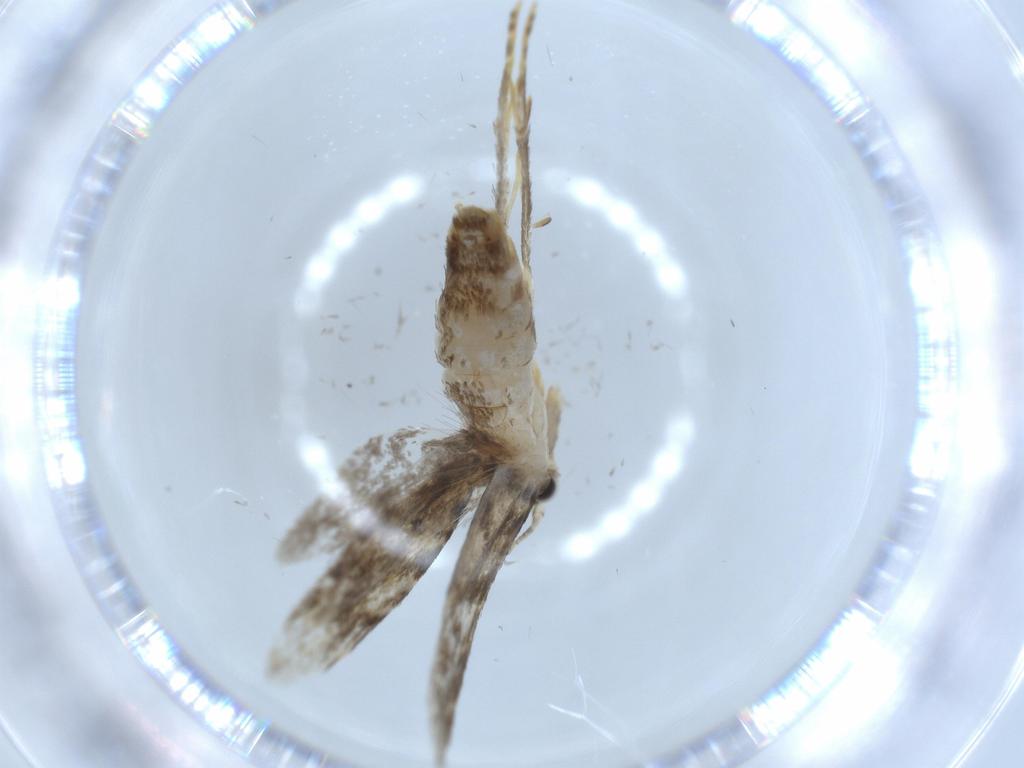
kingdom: Animalia
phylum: Arthropoda
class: Insecta
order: Lepidoptera
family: Tineidae
